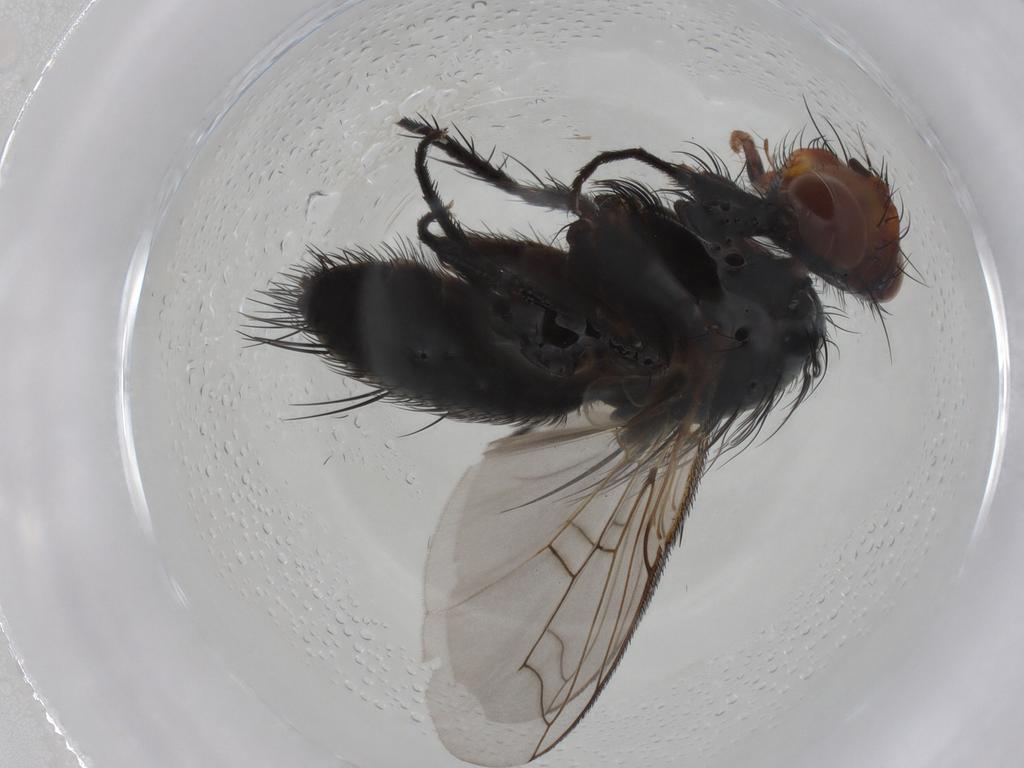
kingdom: Animalia
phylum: Arthropoda
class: Insecta
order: Diptera
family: Tachinidae
